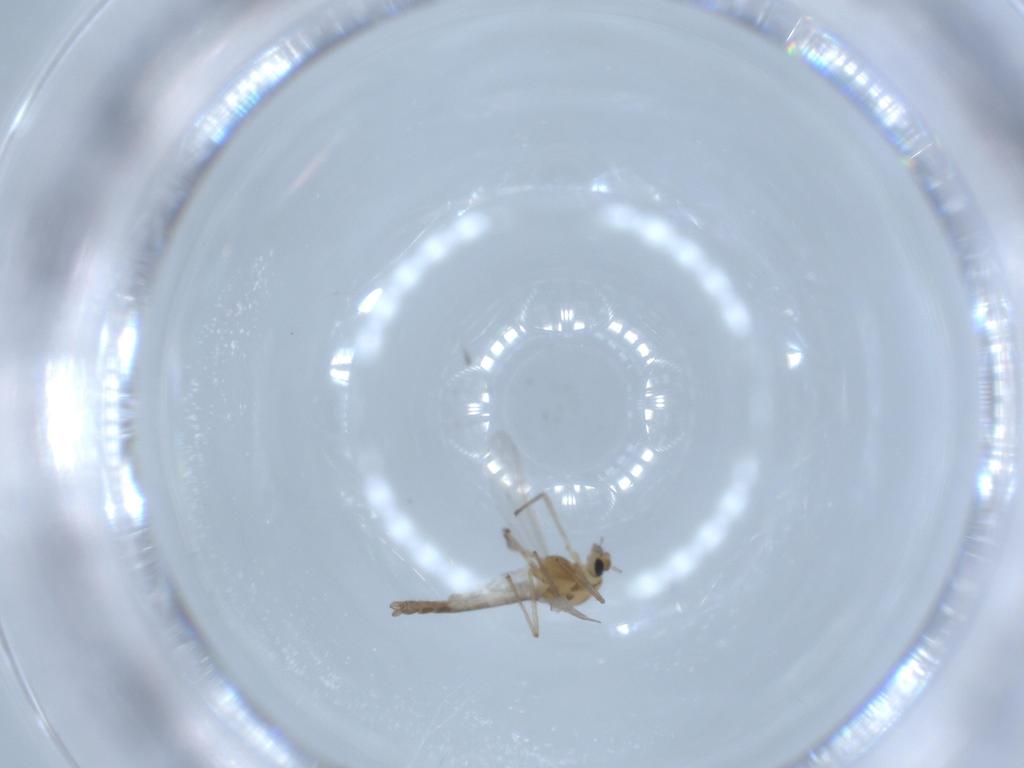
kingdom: Animalia
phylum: Arthropoda
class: Insecta
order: Diptera
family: Chironomidae
